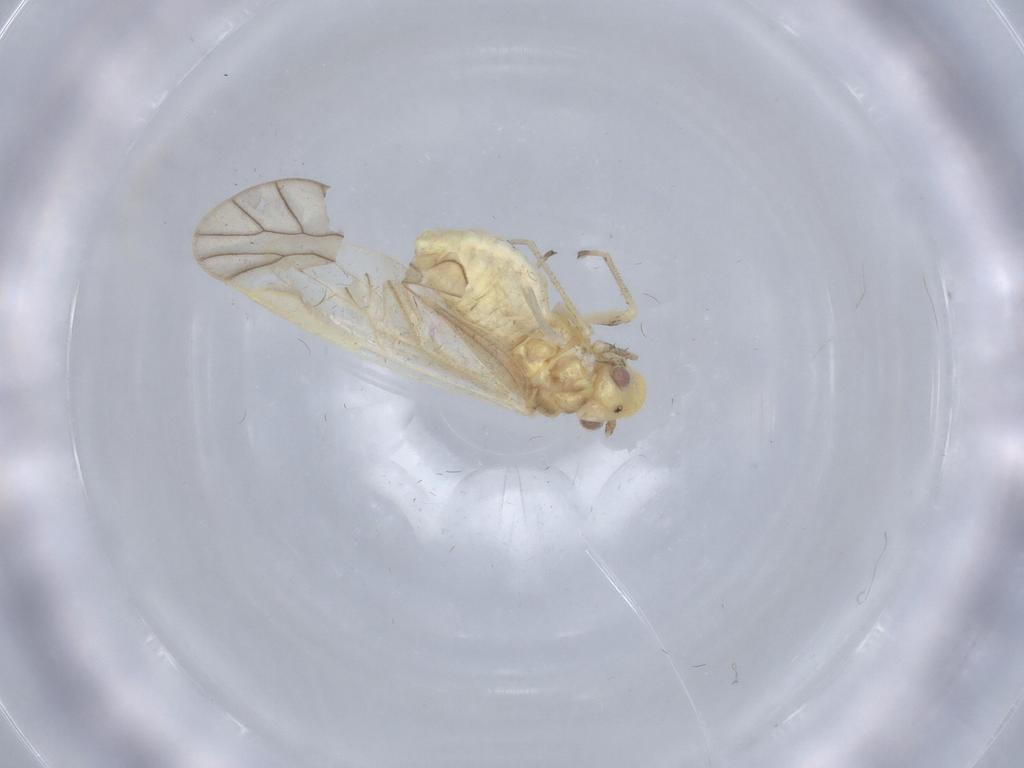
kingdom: Animalia
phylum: Arthropoda
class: Insecta
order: Psocodea
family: Caeciliusidae
